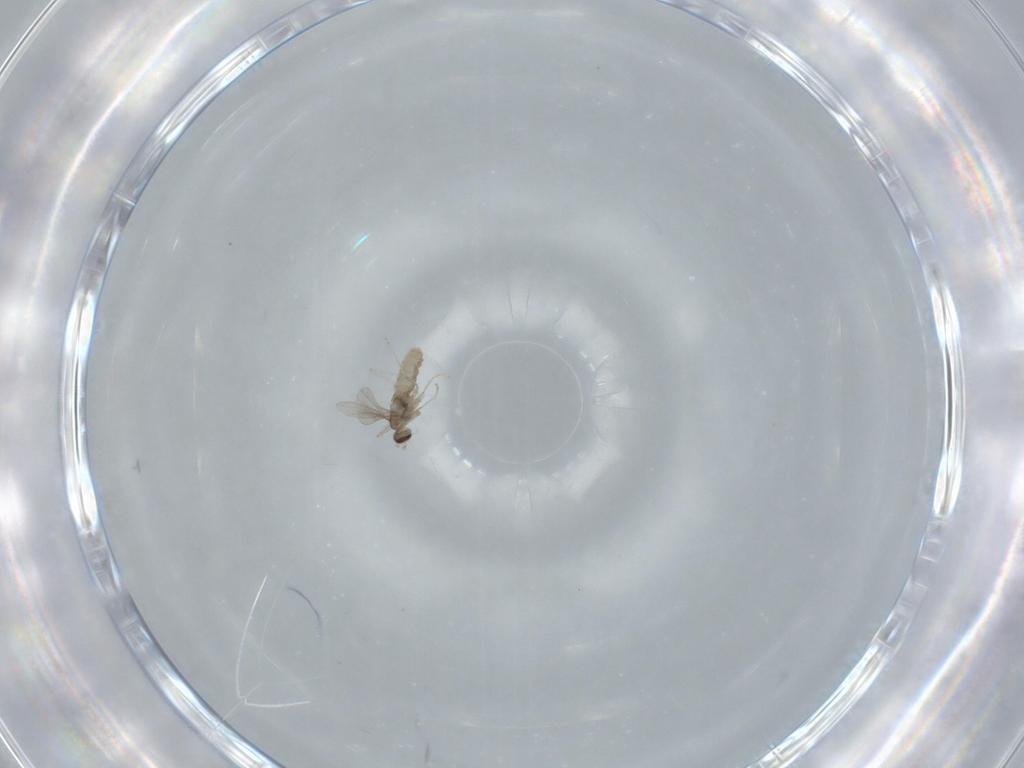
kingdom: Animalia
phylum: Arthropoda
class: Insecta
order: Diptera
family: Cecidomyiidae
